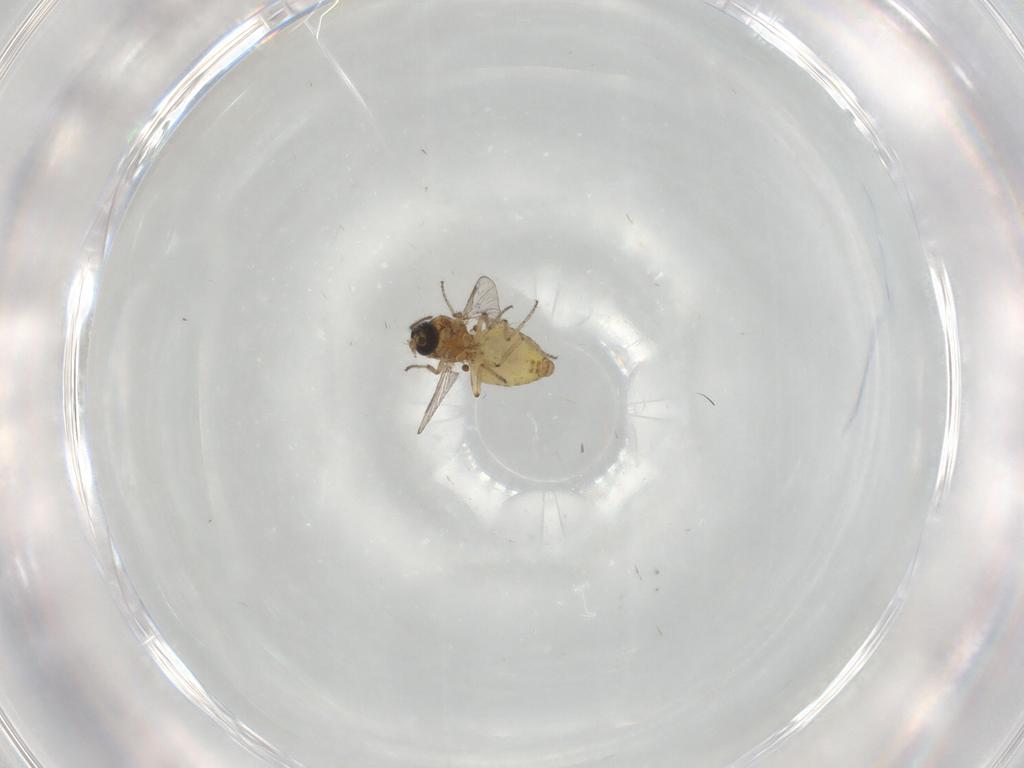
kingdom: Animalia
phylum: Arthropoda
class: Insecta
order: Diptera
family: Ceratopogonidae
